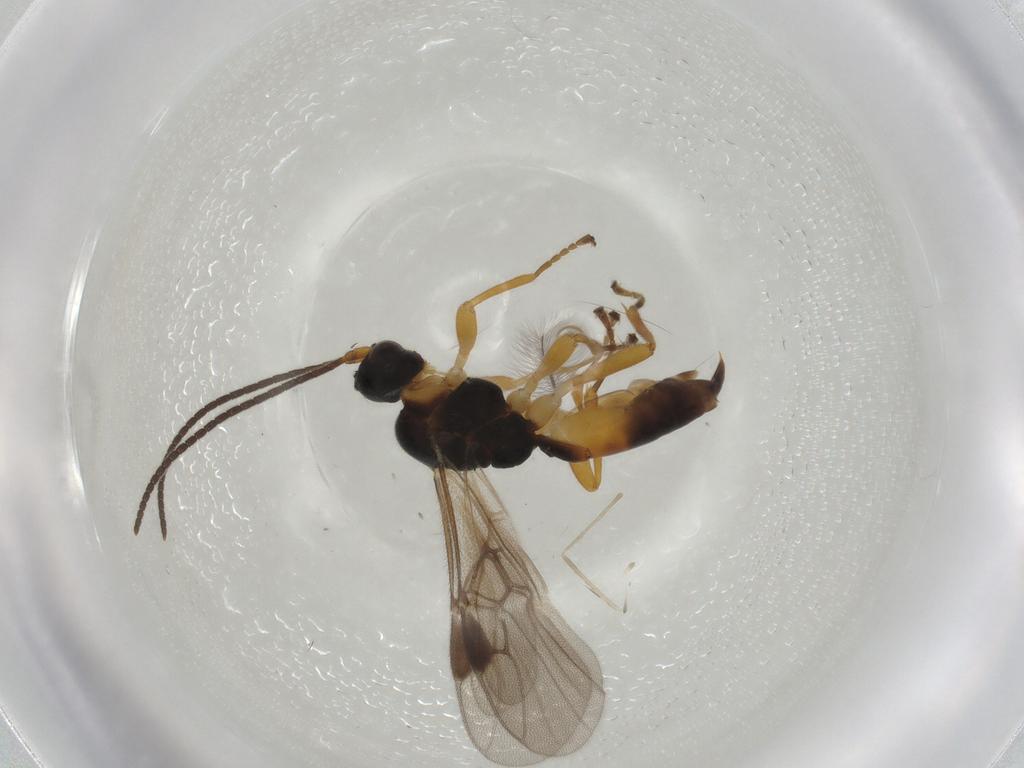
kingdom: Animalia
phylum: Arthropoda
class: Insecta
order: Hymenoptera
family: Braconidae
